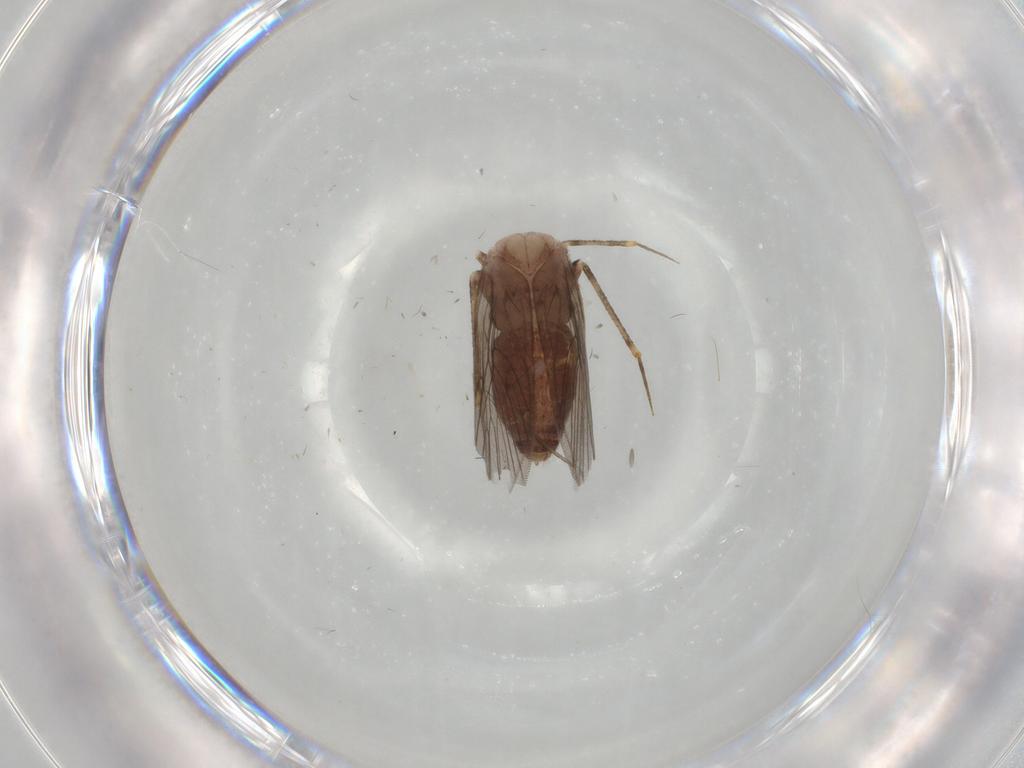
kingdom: Animalia
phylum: Arthropoda
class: Insecta
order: Psocodea
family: Lepidopsocidae
